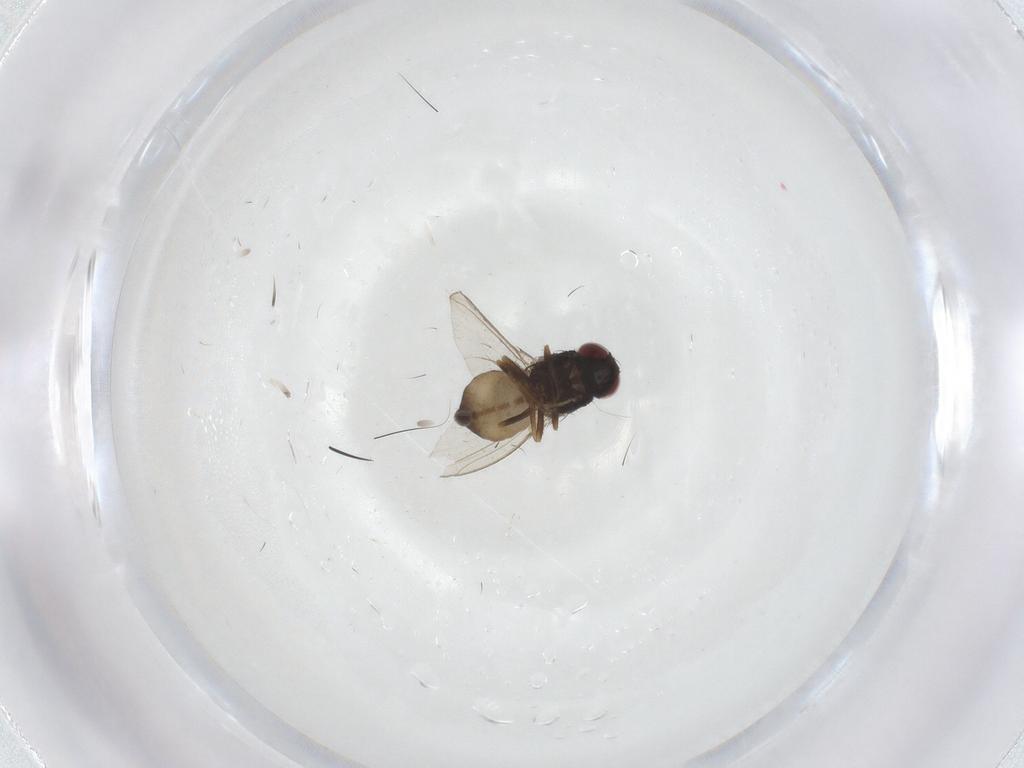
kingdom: Animalia
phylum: Arthropoda
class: Insecta
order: Diptera
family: Carnidae
